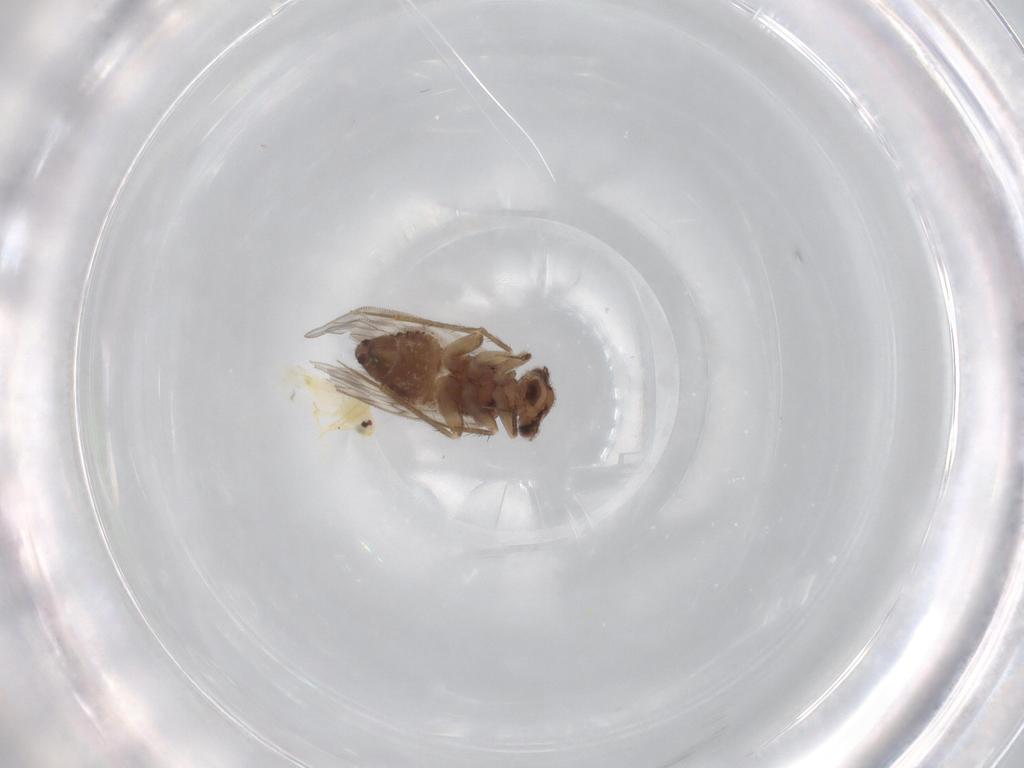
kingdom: Animalia
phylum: Arthropoda
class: Insecta
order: Psocodea
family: Lepidopsocidae
